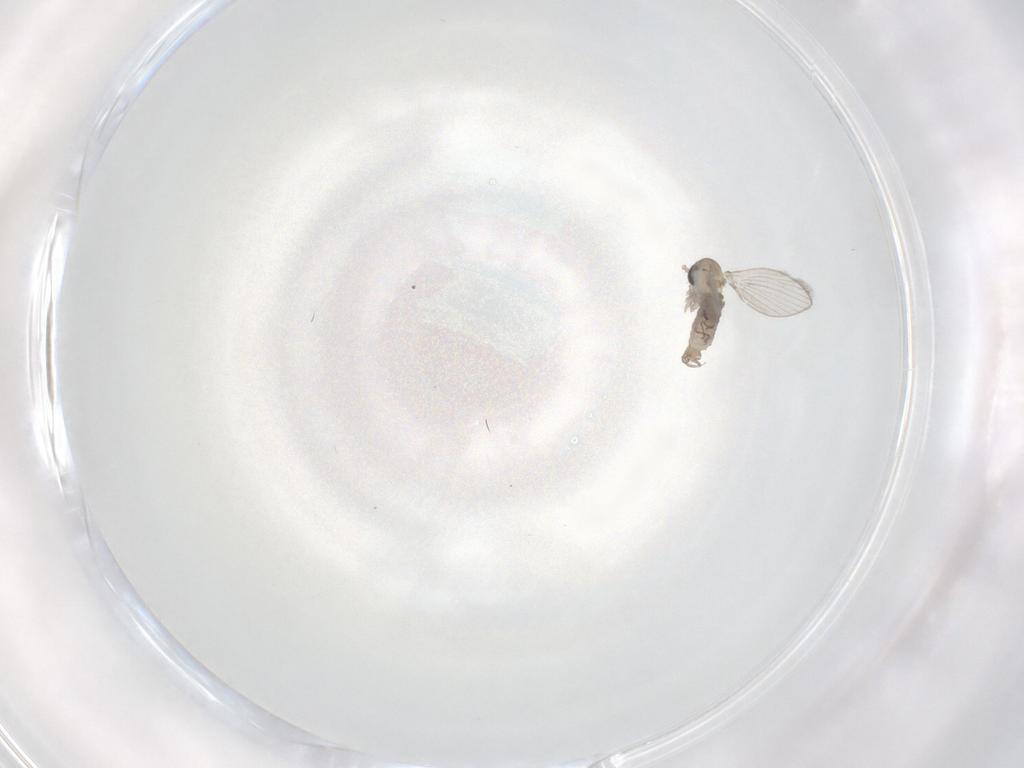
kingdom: Animalia
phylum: Arthropoda
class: Insecta
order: Diptera
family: Psychodidae
